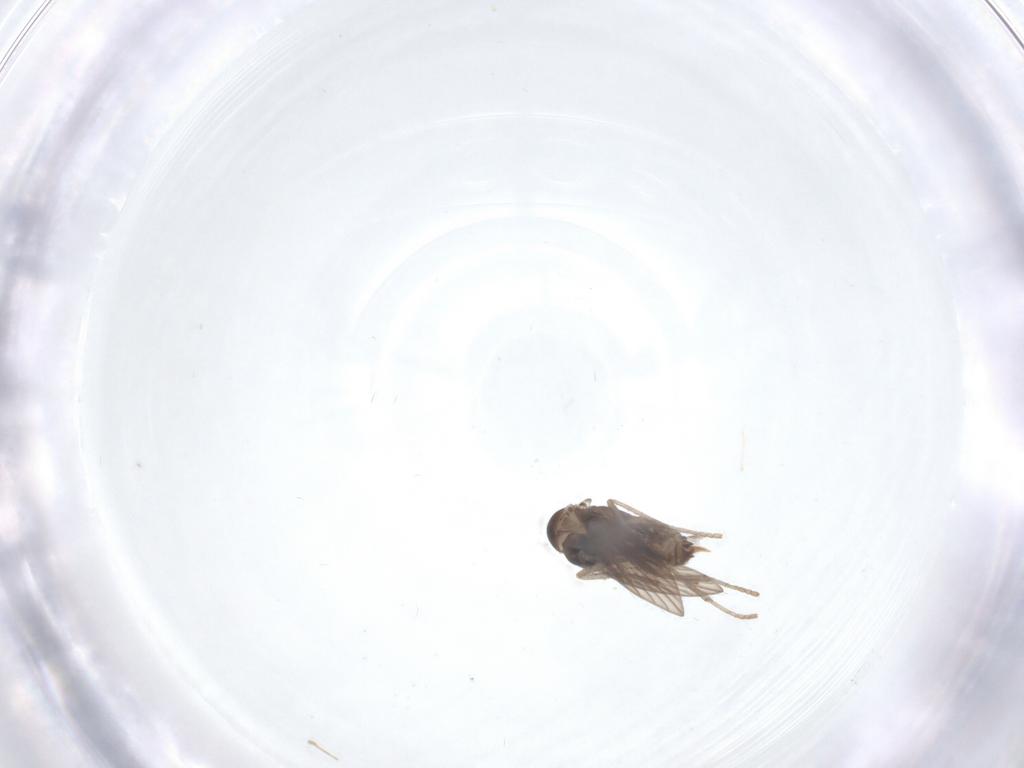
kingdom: Animalia
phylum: Arthropoda
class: Insecta
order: Diptera
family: Psychodidae
